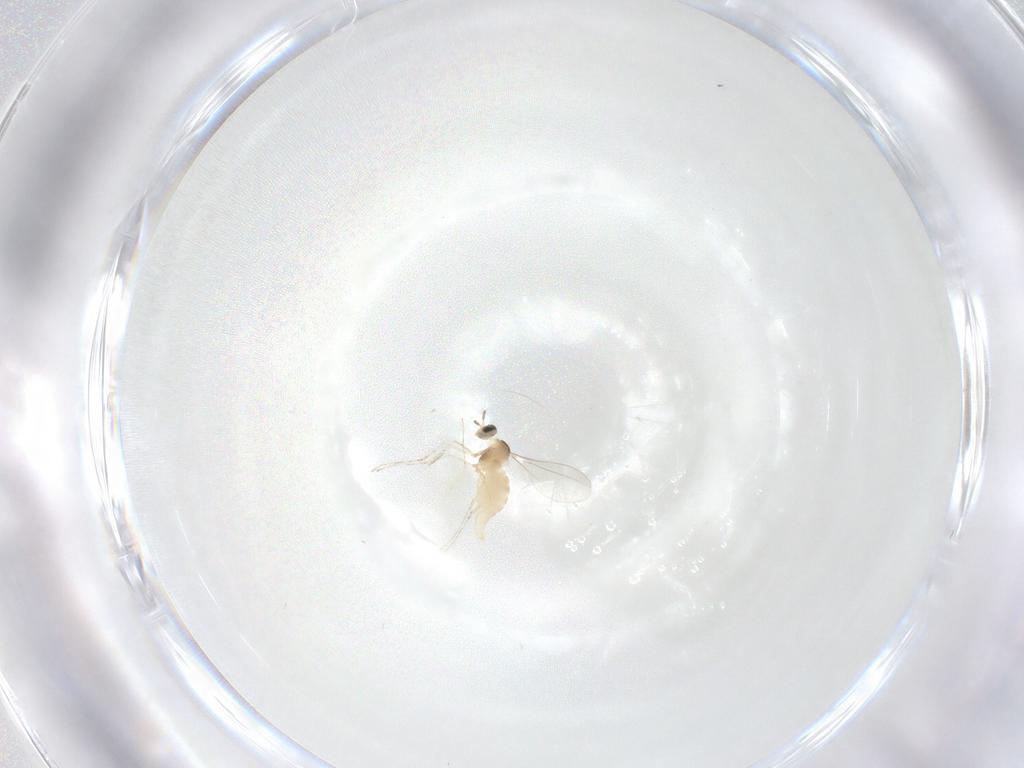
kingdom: Animalia
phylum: Arthropoda
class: Insecta
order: Diptera
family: Cecidomyiidae
